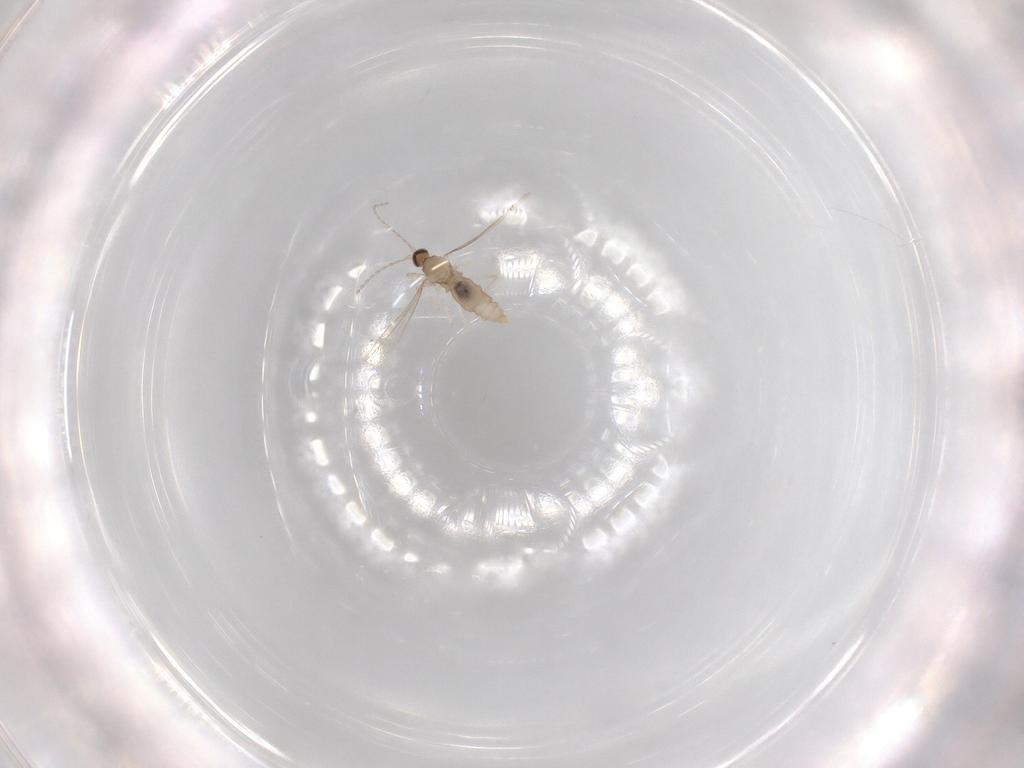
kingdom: Animalia
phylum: Arthropoda
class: Insecta
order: Diptera
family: Cecidomyiidae
